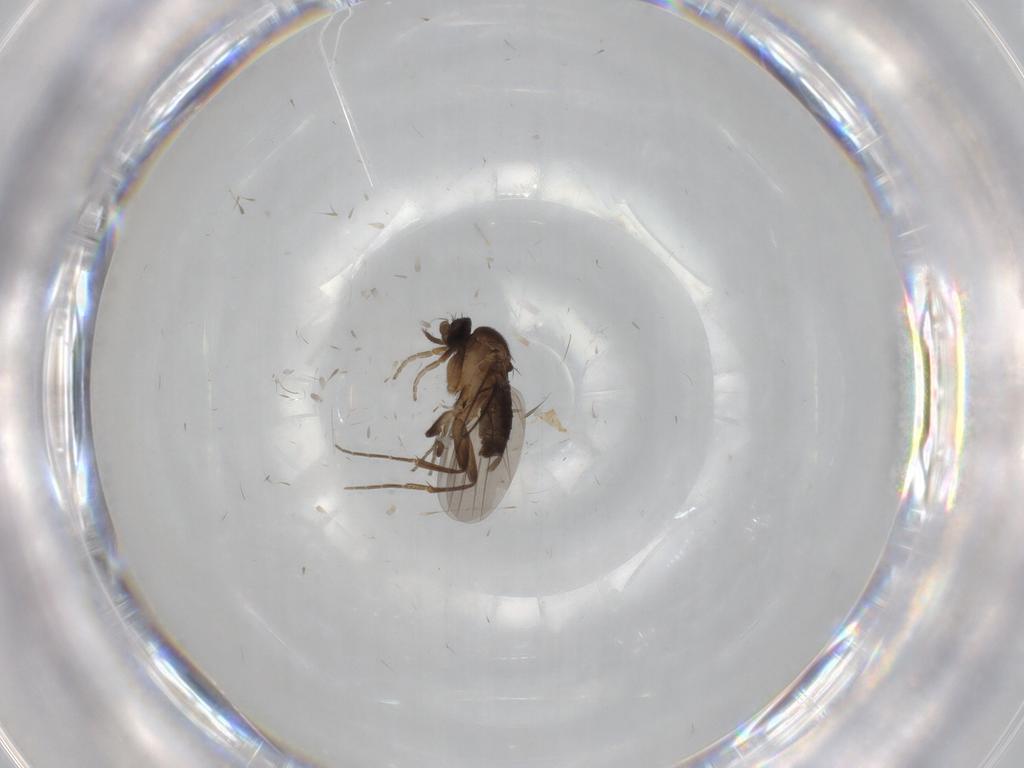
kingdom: Animalia
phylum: Arthropoda
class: Insecta
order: Diptera
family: Phoridae
